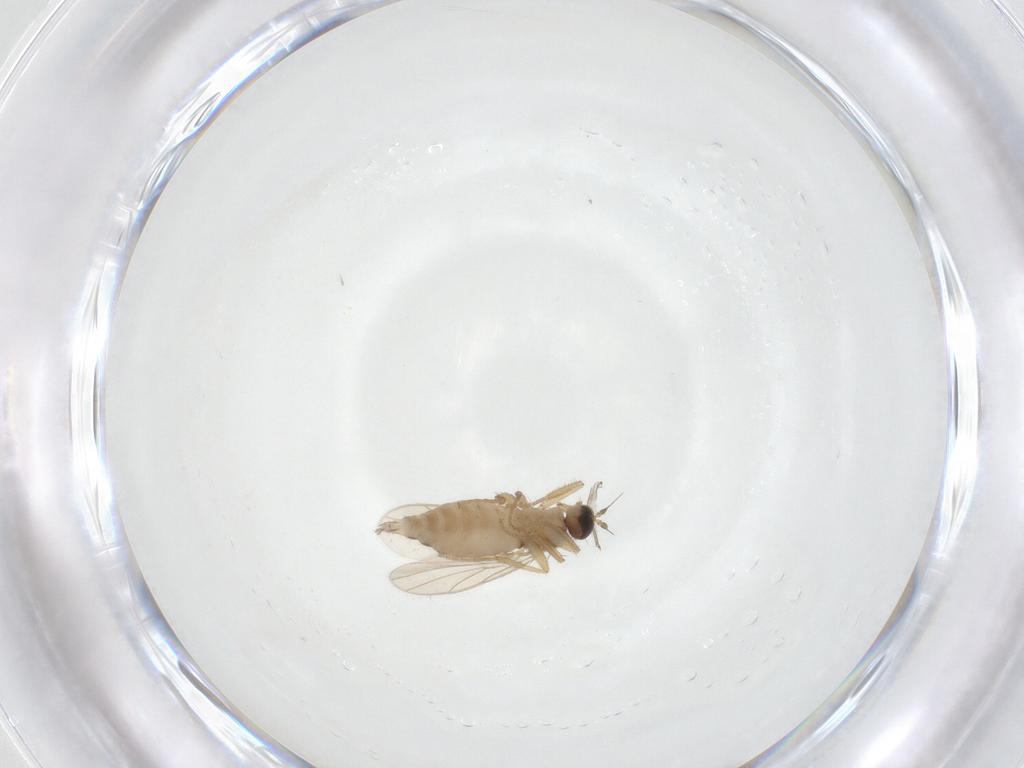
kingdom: Animalia
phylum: Arthropoda
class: Insecta
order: Diptera
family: Hybotidae
